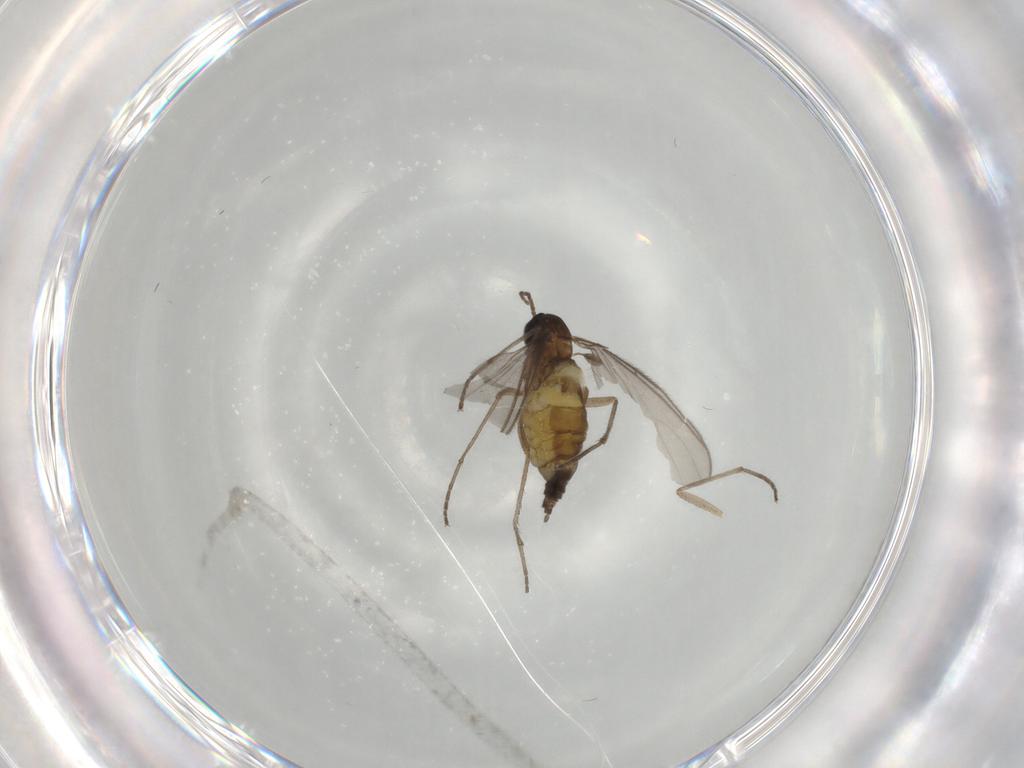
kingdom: Animalia
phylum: Arthropoda
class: Insecta
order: Diptera
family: Sciaridae
